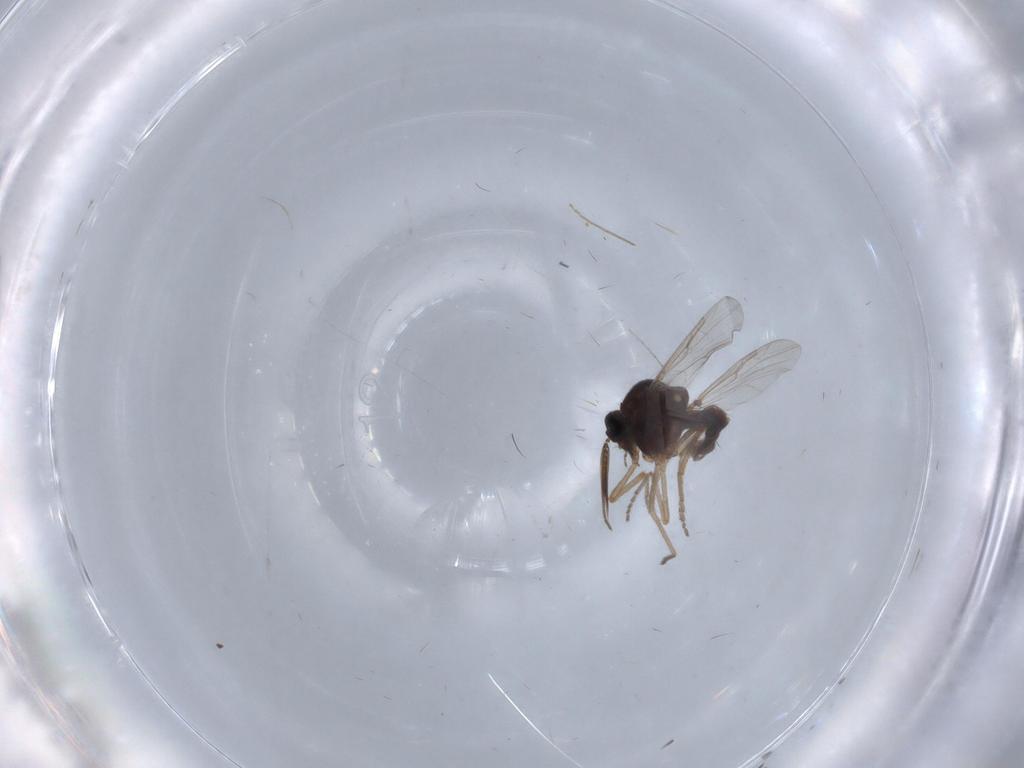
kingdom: Animalia
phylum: Arthropoda
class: Insecta
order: Diptera
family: Chironomidae
